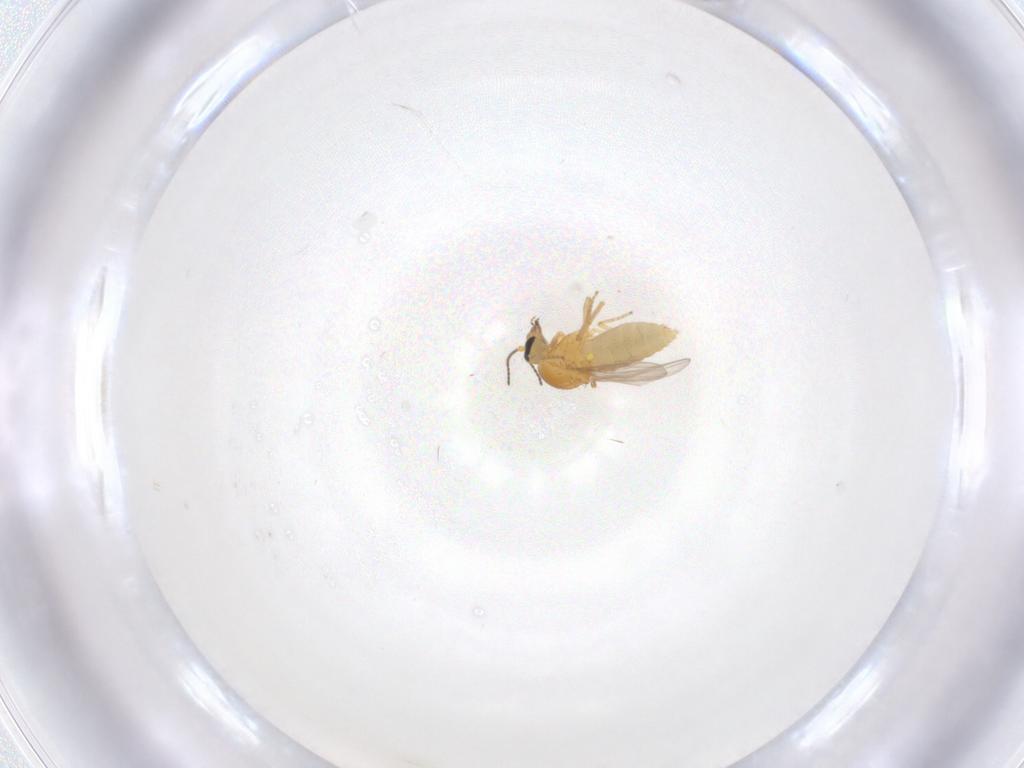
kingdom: Animalia
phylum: Arthropoda
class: Insecta
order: Diptera
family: Ceratopogonidae
